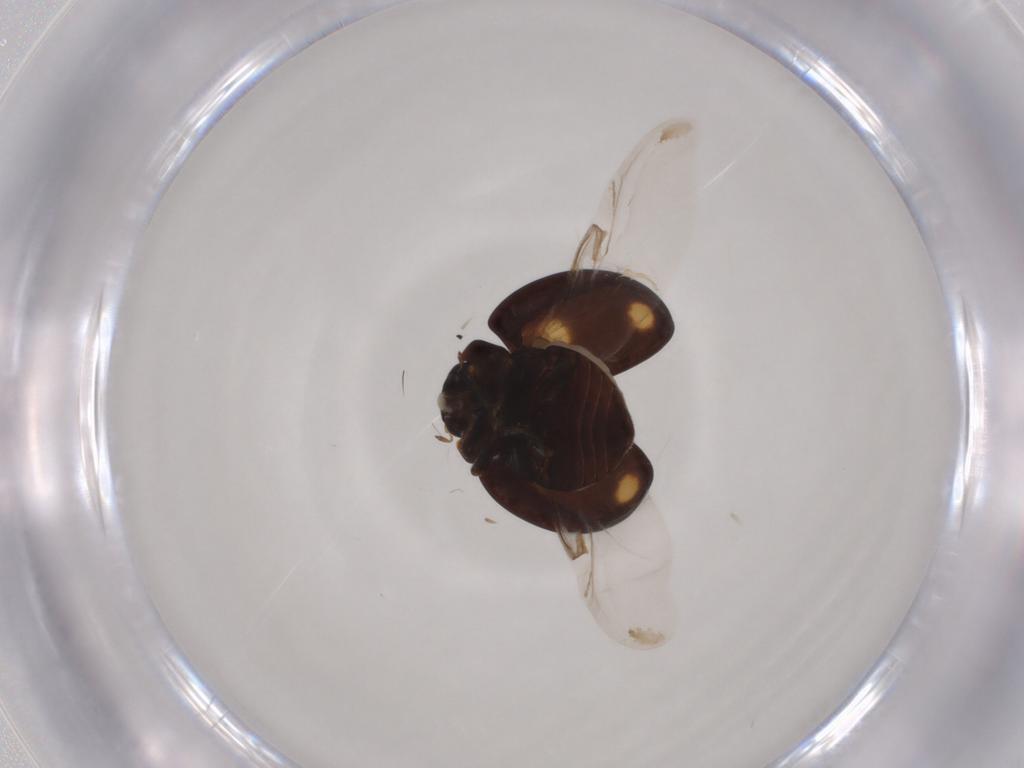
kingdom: Animalia
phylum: Arthropoda
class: Insecta
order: Coleoptera
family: Coccinellidae
